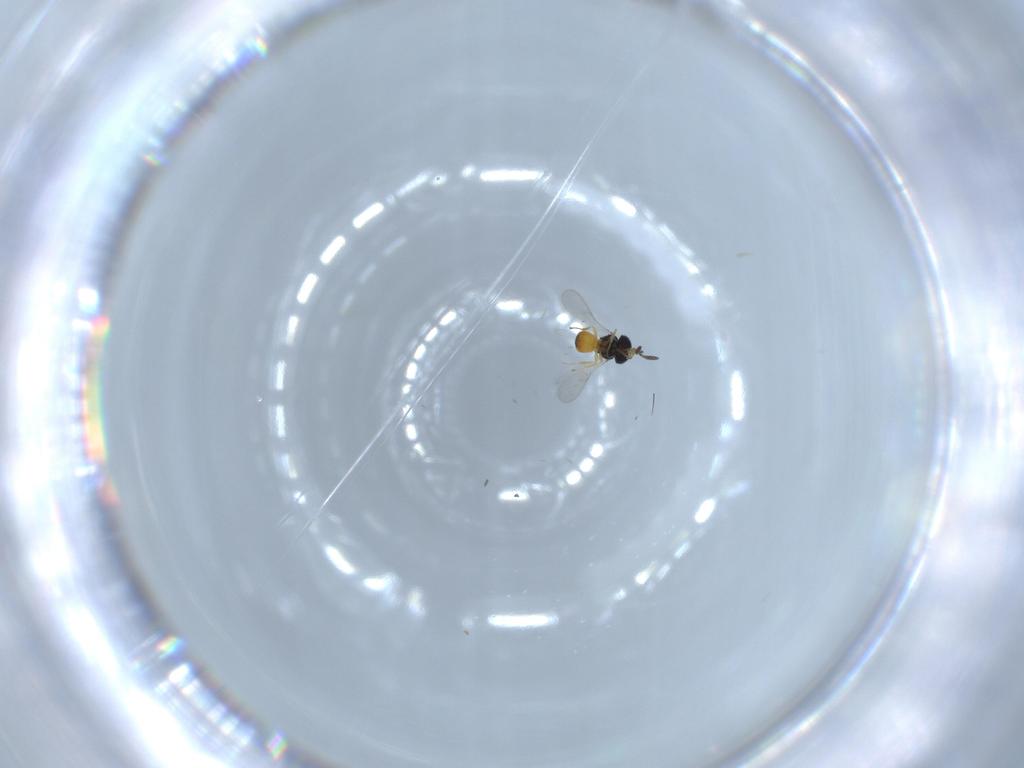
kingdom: Animalia
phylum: Arthropoda
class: Insecta
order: Hymenoptera
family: Scelionidae
